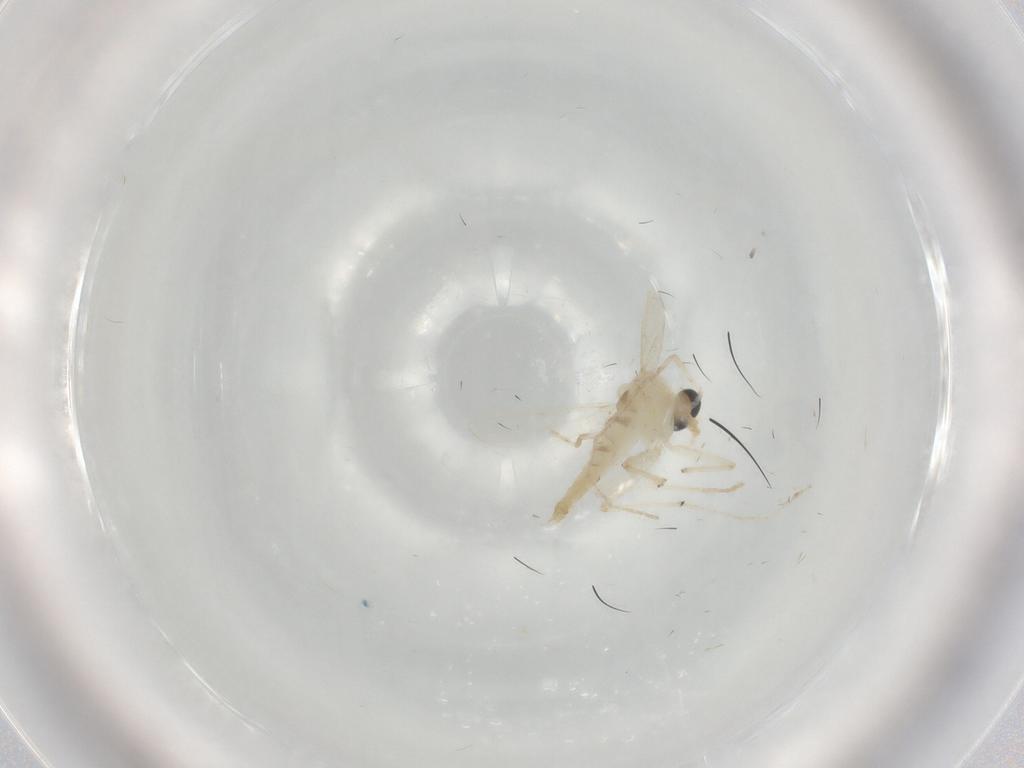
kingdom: Animalia
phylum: Arthropoda
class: Insecta
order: Diptera
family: Chironomidae
